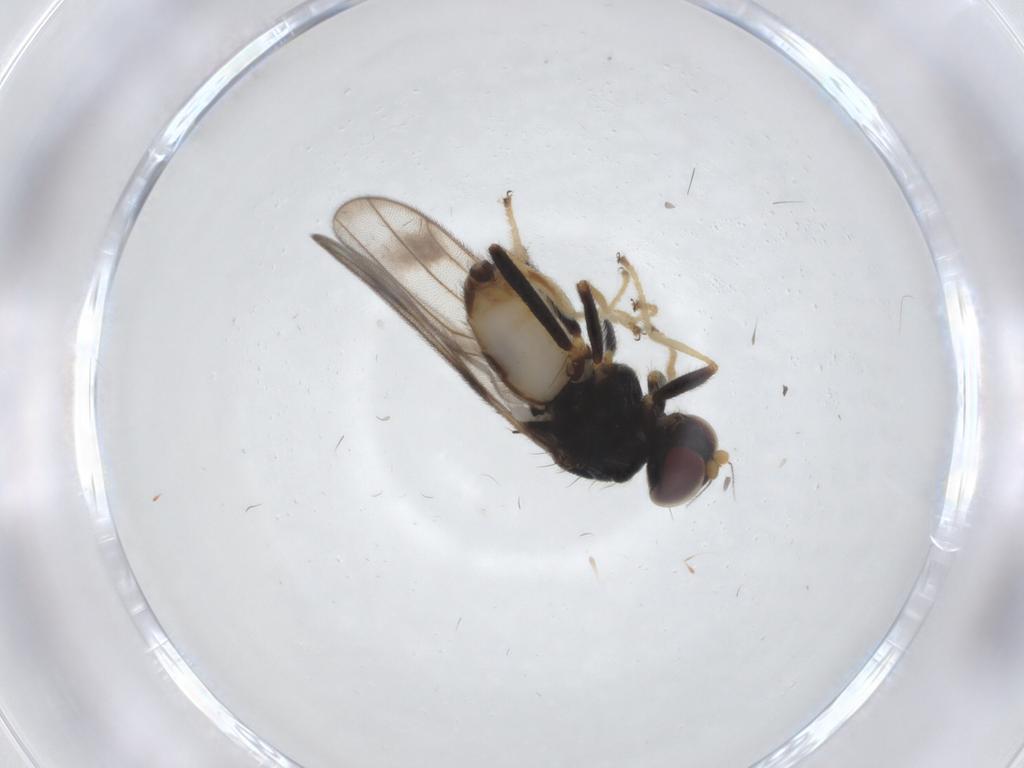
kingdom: Animalia
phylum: Arthropoda
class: Insecta
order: Diptera
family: Chloropidae
